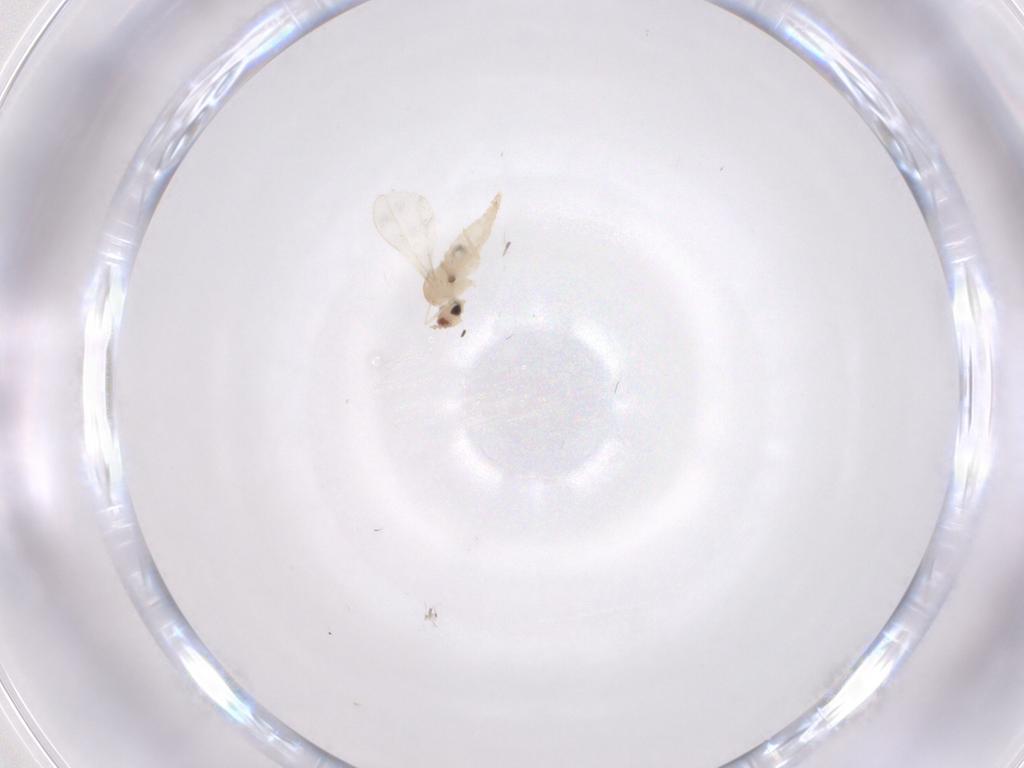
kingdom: Animalia
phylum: Arthropoda
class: Insecta
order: Diptera
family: Cecidomyiidae
